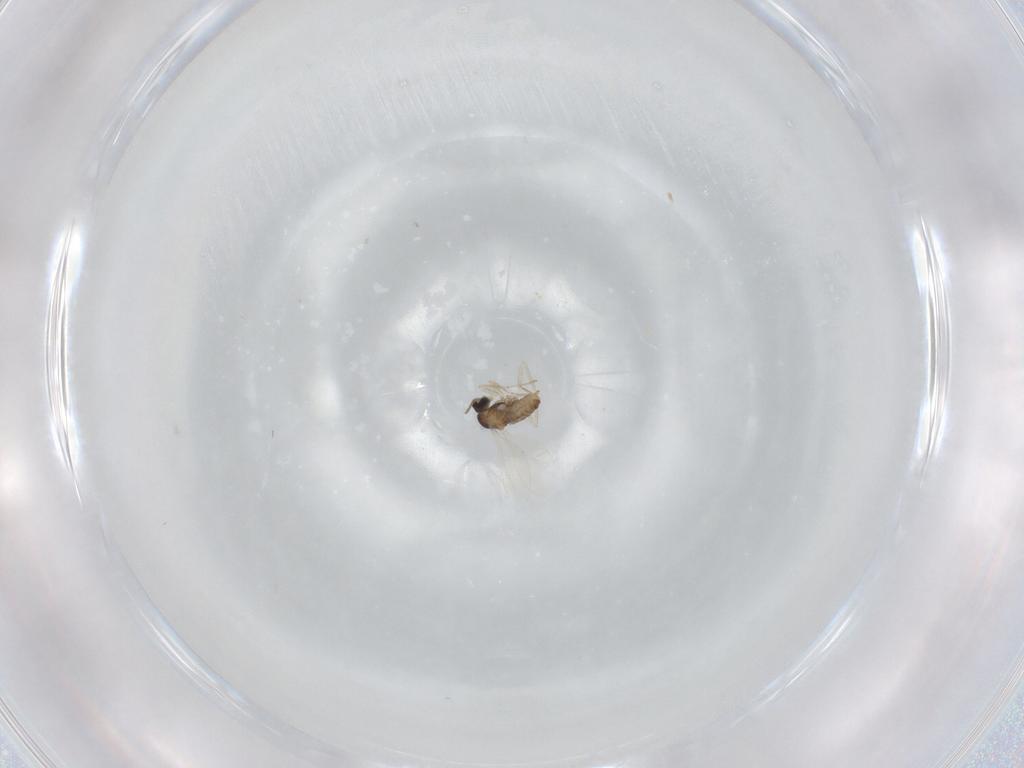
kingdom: Animalia
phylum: Arthropoda
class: Insecta
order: Diptera
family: Cecidomyiidae
